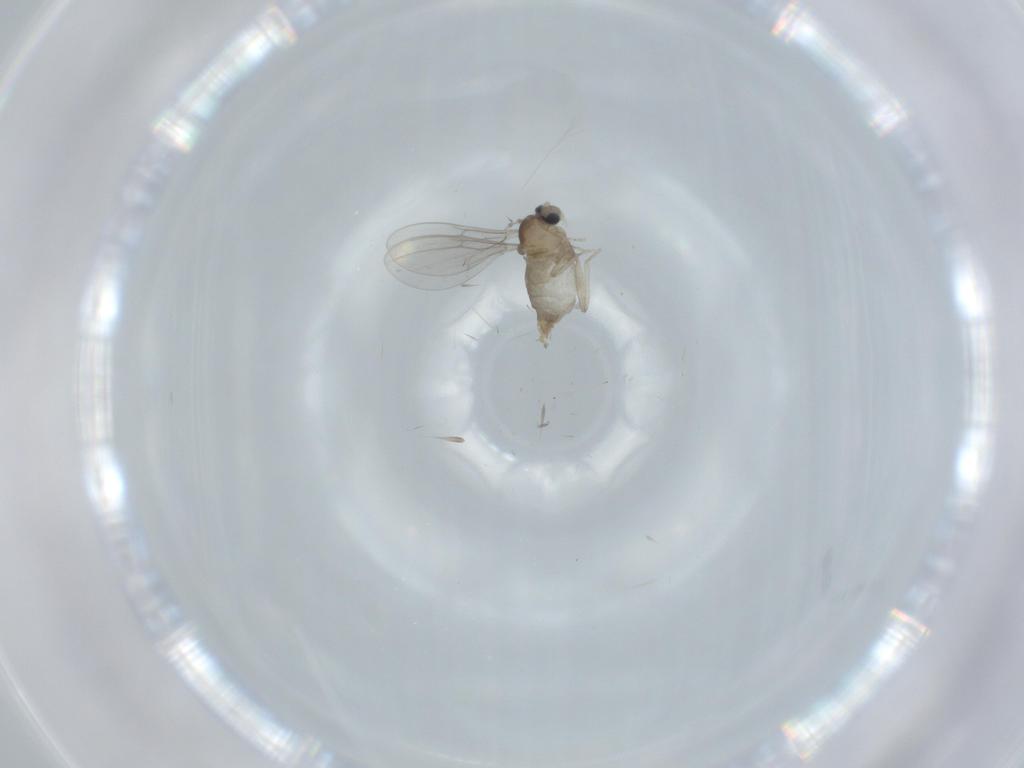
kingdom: Animalia
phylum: Arthropoda
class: Insecta
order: Diptera
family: Cecidomyiidae
